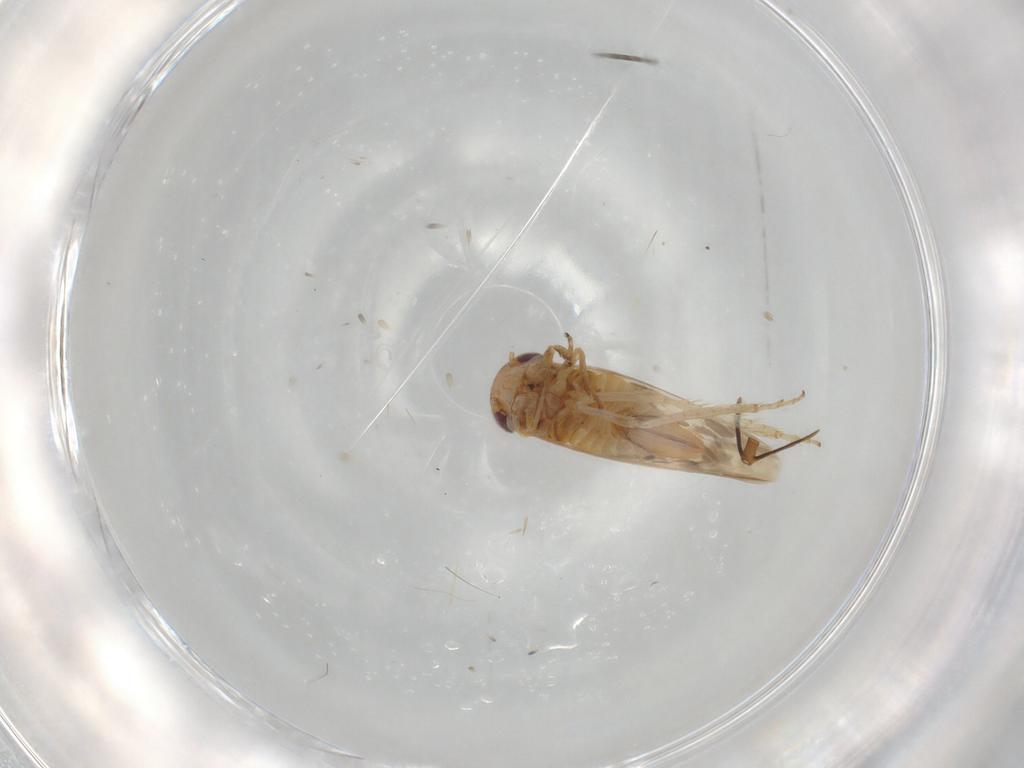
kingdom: Animalia
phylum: Arthropoda
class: Insecta
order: Hemiptera
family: Cicadellidae
